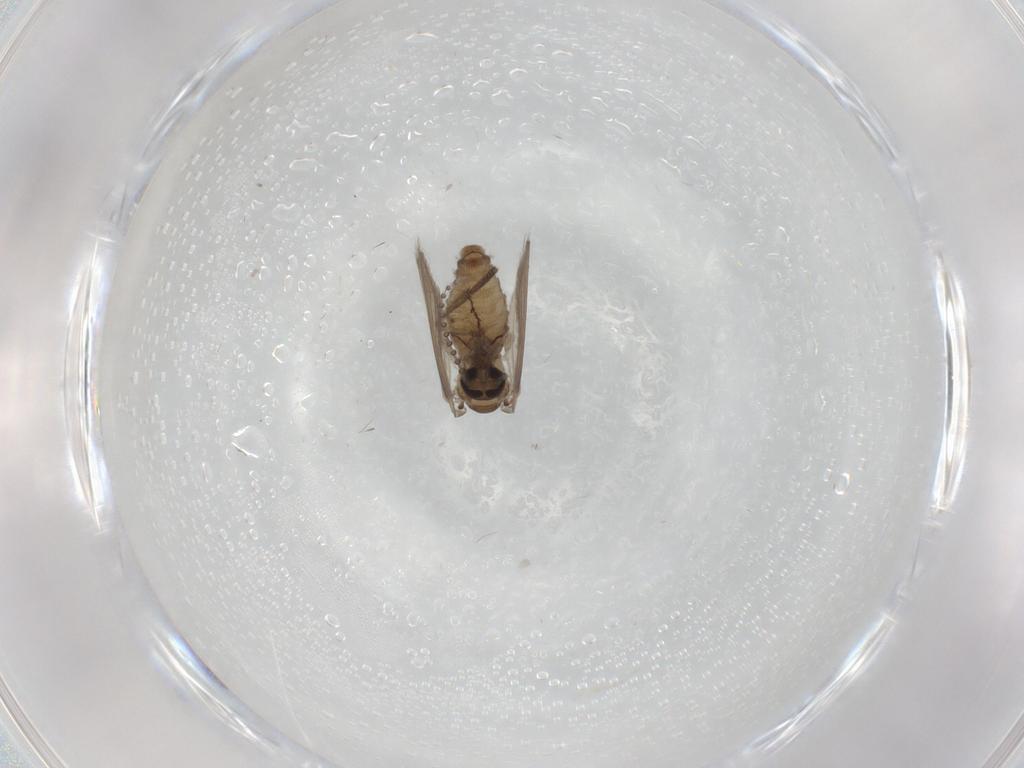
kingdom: Animalia
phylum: Arthropoda
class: Insecta
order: Diptera
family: Psychodidae
